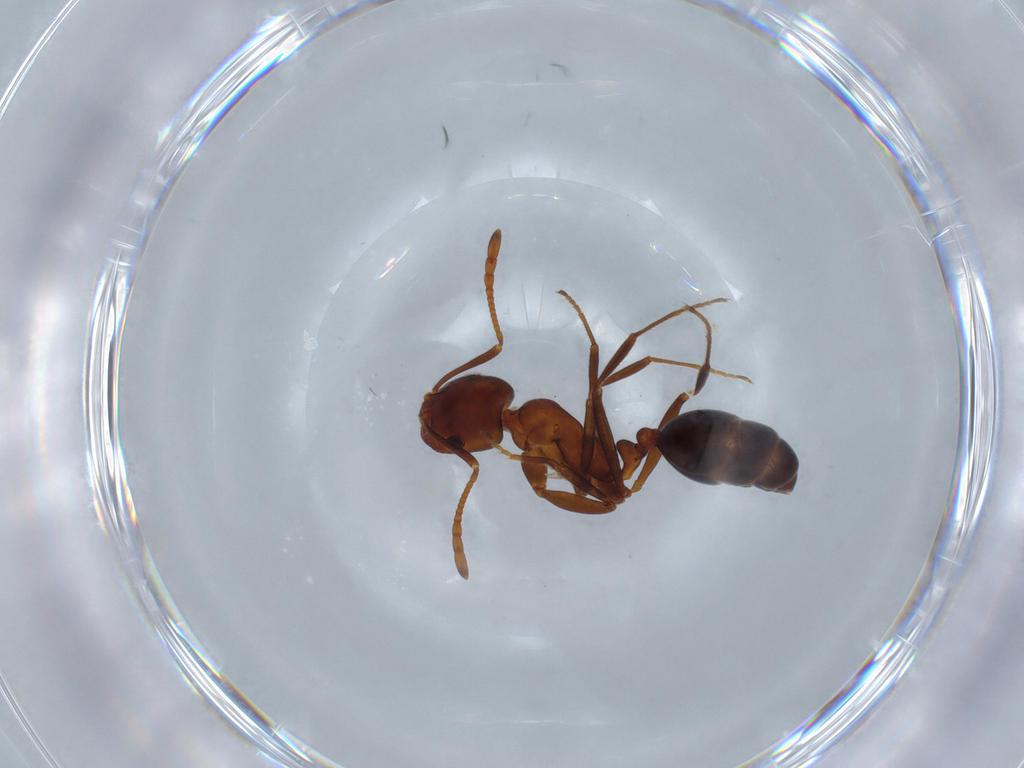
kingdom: Animalia
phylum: Arthropoda
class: Insecta
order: Hymenoptera
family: Formicidae
